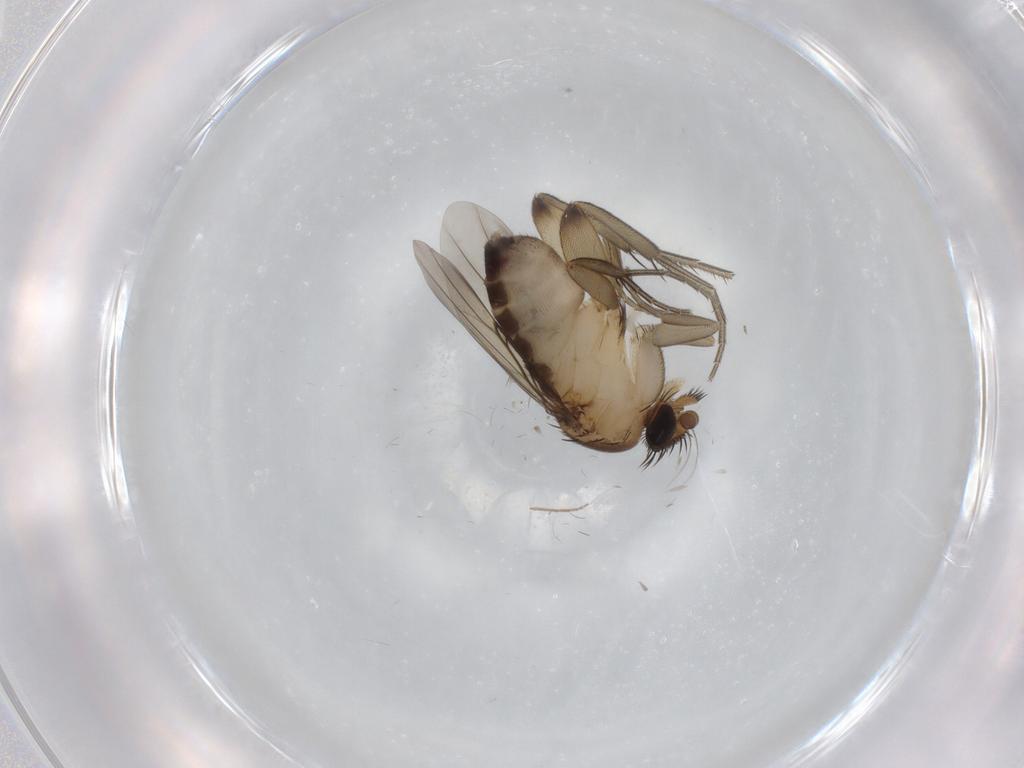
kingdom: Animalia
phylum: Arthropoda
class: Insecta
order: Diptera
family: Phoridae
